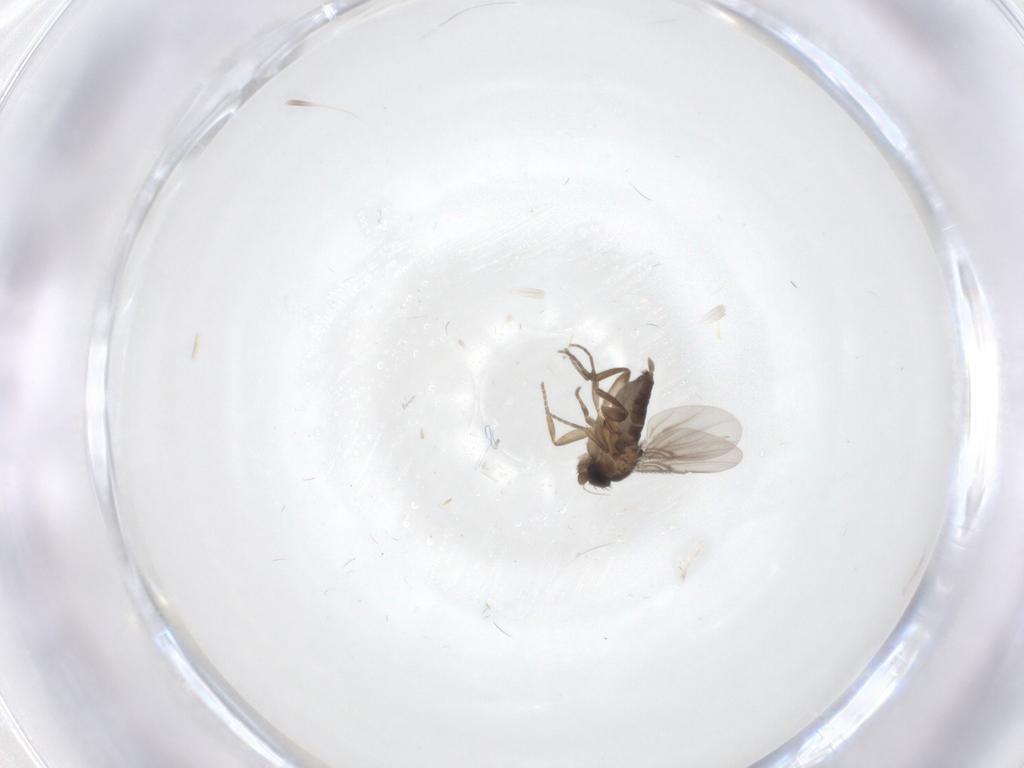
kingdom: Animalia
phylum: Arthropoda
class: Insecta
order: Diptera
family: Phoridae
